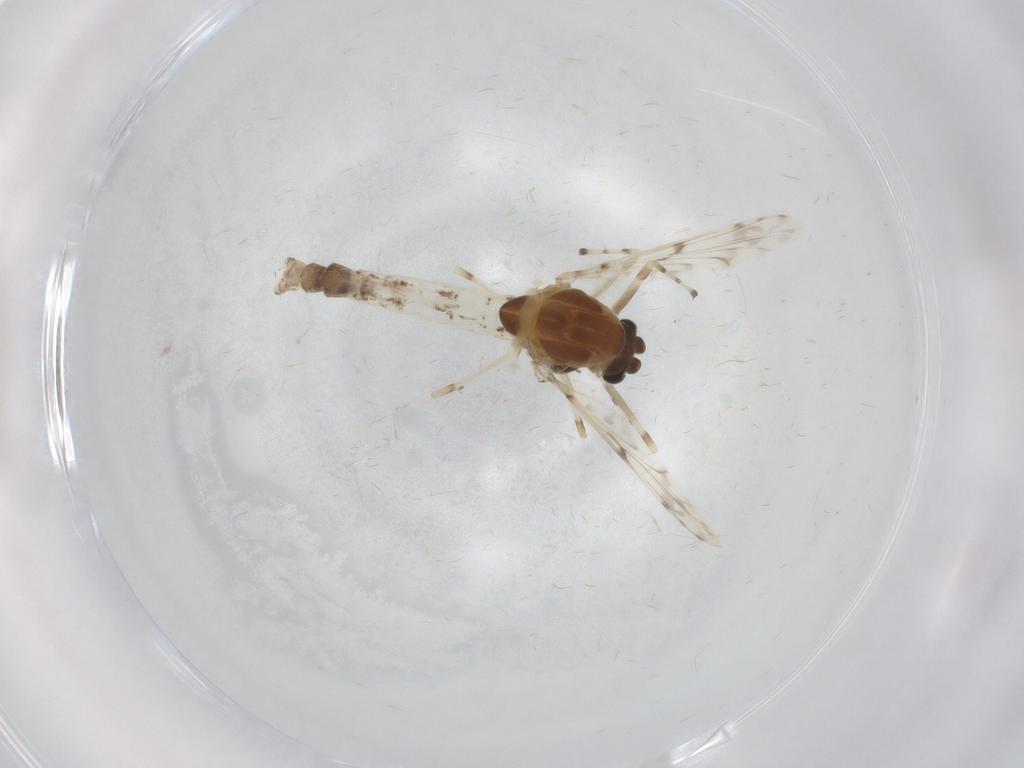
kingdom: Animalia
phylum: Arthropoda
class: Insecta
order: Diptera
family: Chironomidae
